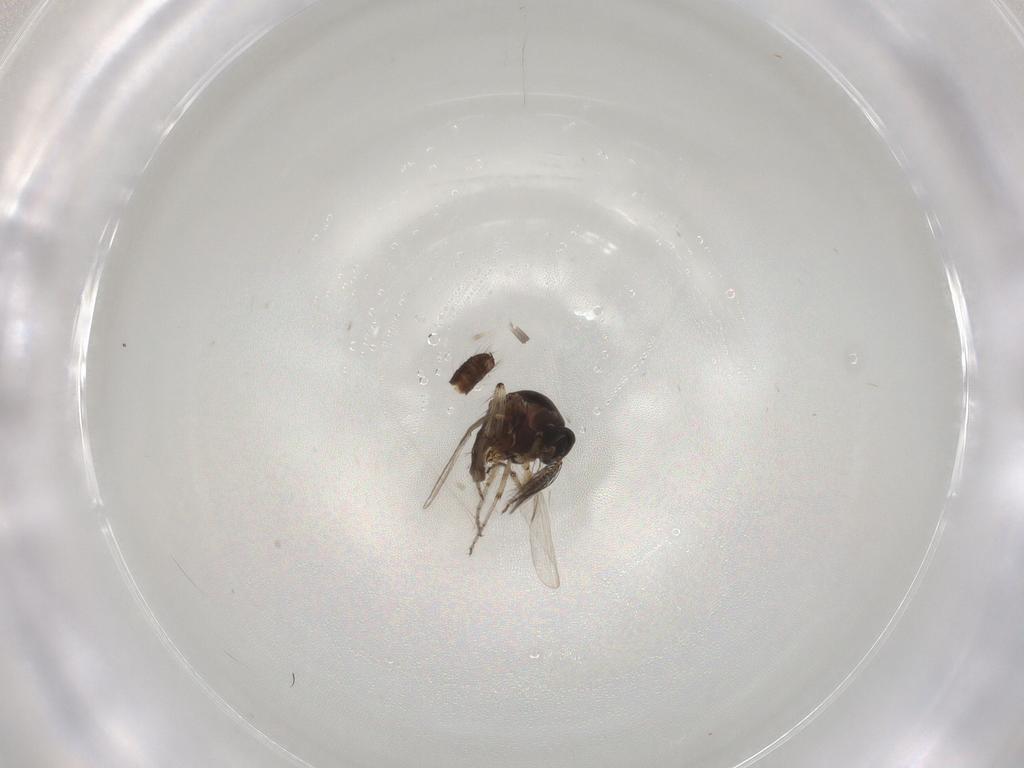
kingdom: Animalia
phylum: Arthropoda
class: Insecta
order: Diptera
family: Ceratopogonidae
